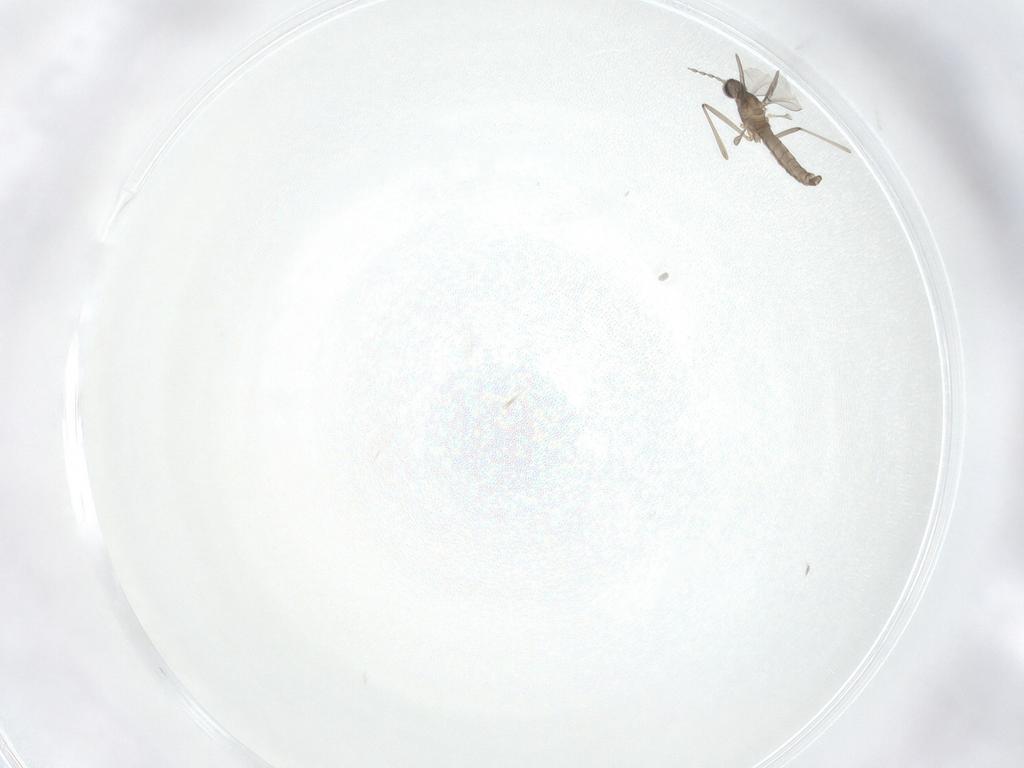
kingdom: Animalia
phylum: Arthropoda
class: Insecta
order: Diptera
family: Cecidomyiidae
